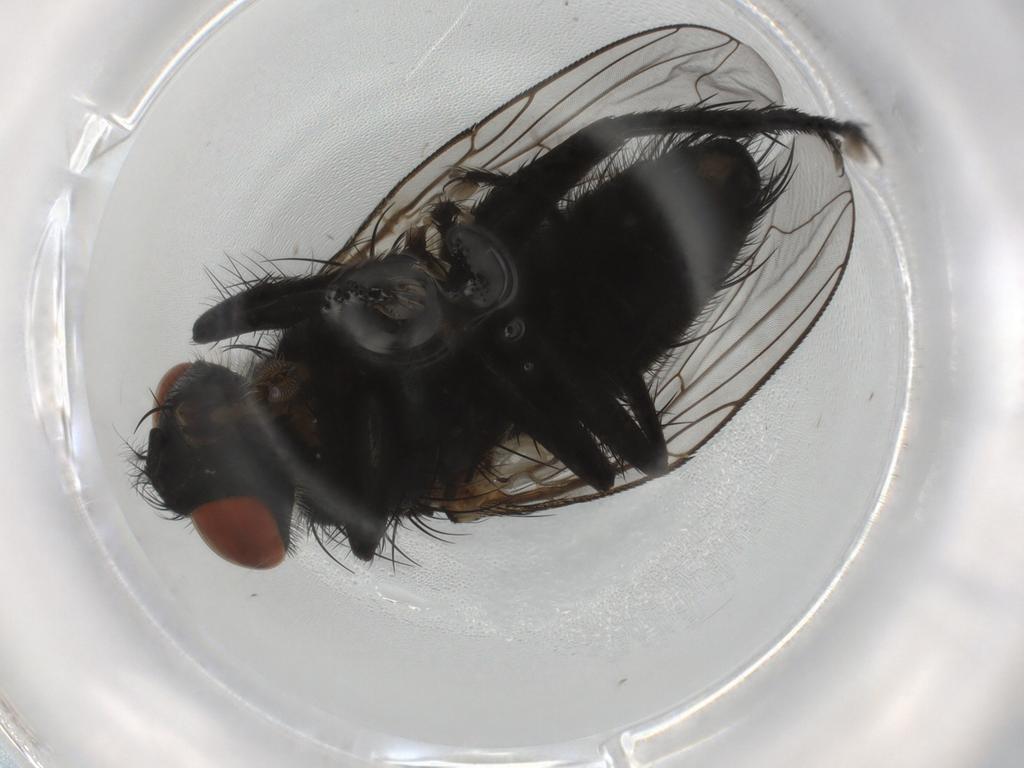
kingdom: Animalia
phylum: Arthropoda
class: Insecta
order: Diptera
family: Sarcophagidae
